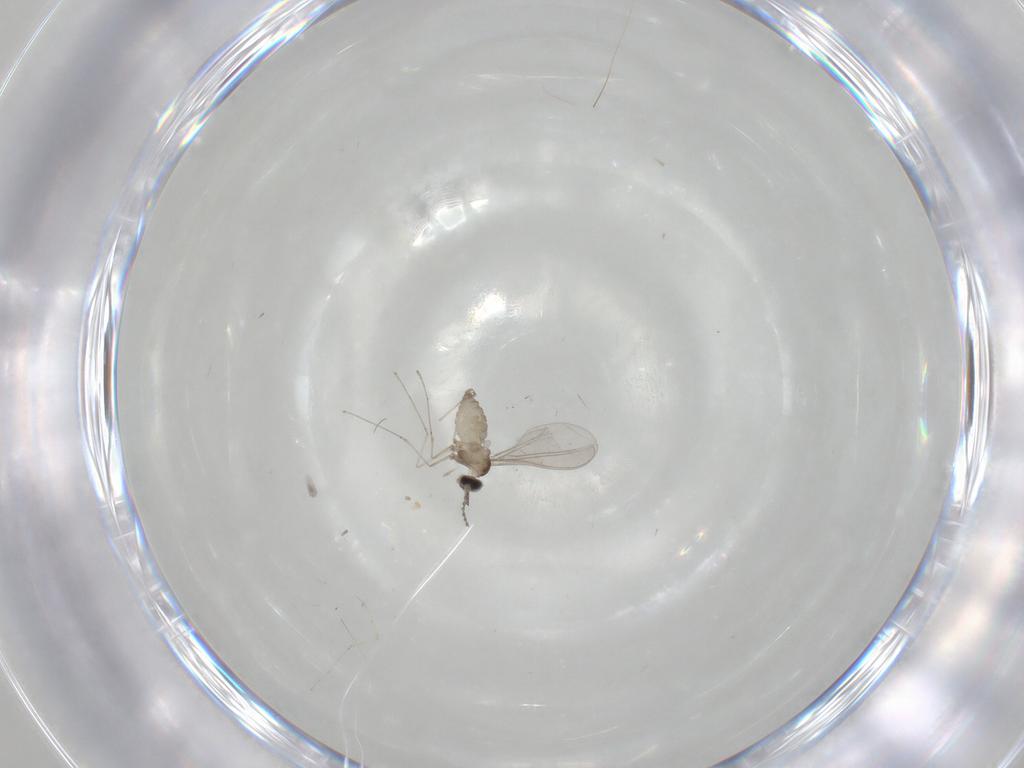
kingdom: Animalia
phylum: Arthropoda
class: Insecta
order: Diptera
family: Cecidomyiidae
